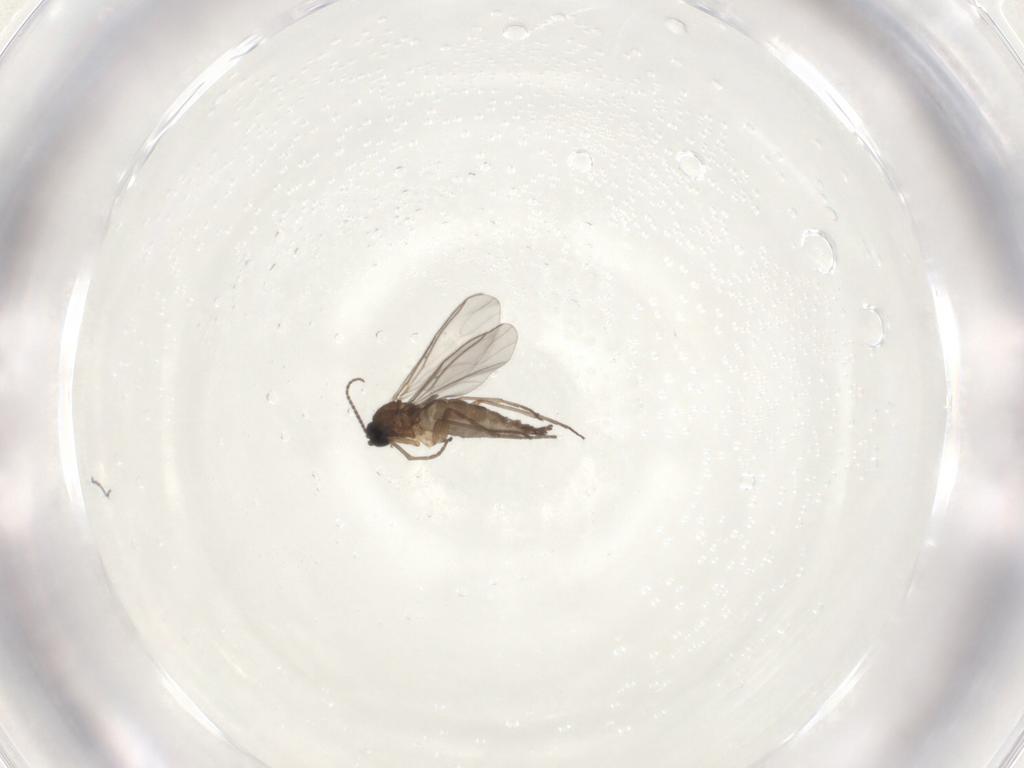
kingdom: Animalia
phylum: Arthropoda
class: Insecta
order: Diptera
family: Sciaridae
